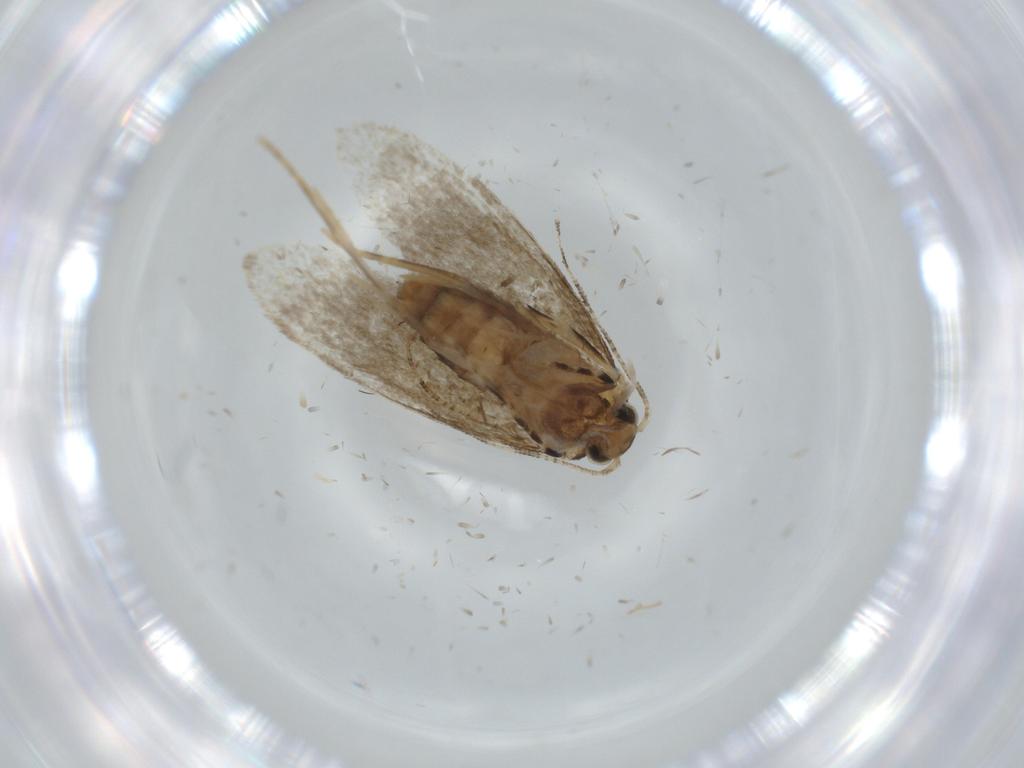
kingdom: Animalia
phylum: Arthropoda
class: Insecta
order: Lepidoptera
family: Tineidae
